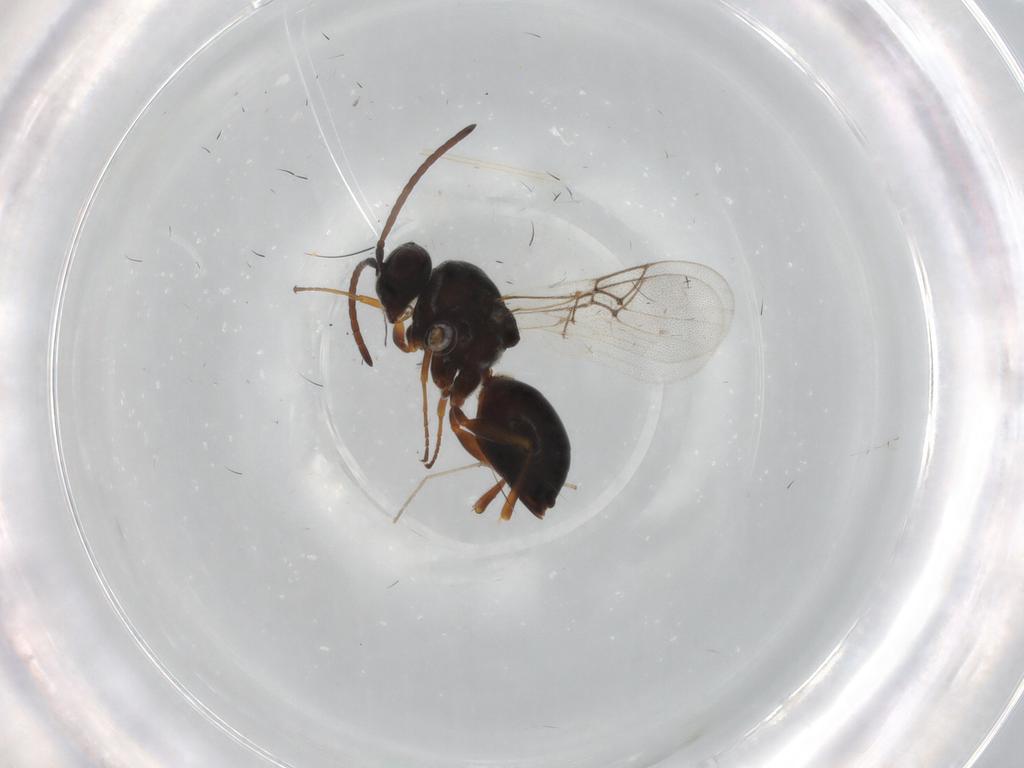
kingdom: Animalia
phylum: Arthropoda
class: Insecta
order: Hymenoptera
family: Figitidae
